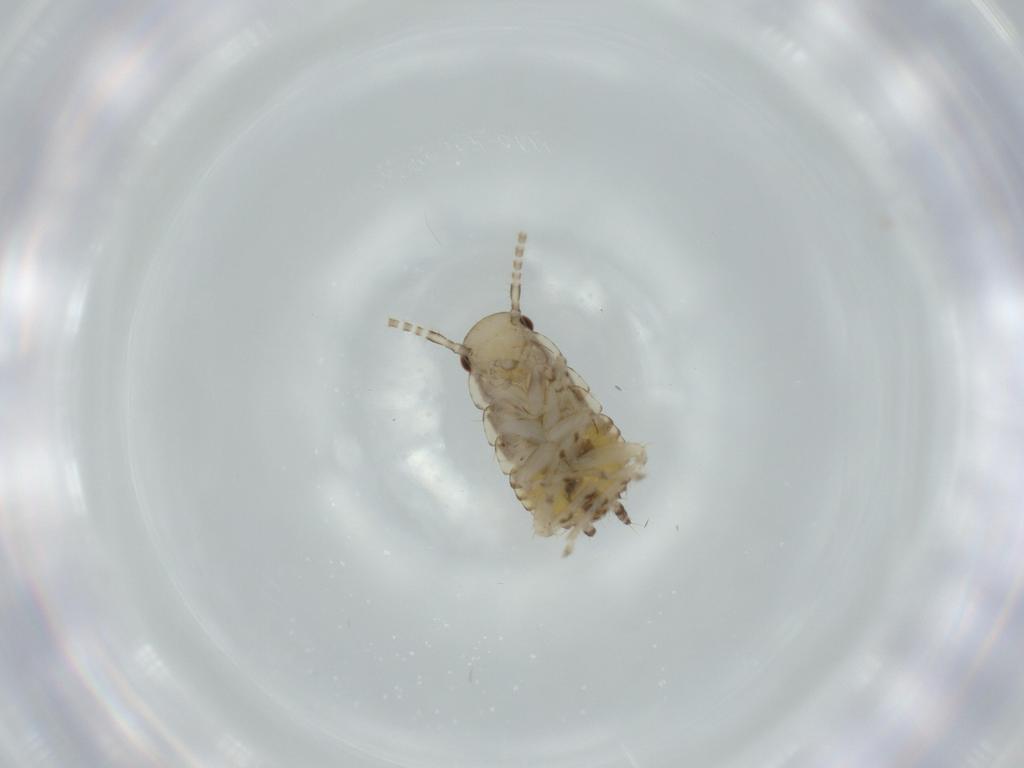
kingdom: Animalia
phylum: Arthropoda
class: Insecta
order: Blattodea
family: Ectobiidae
